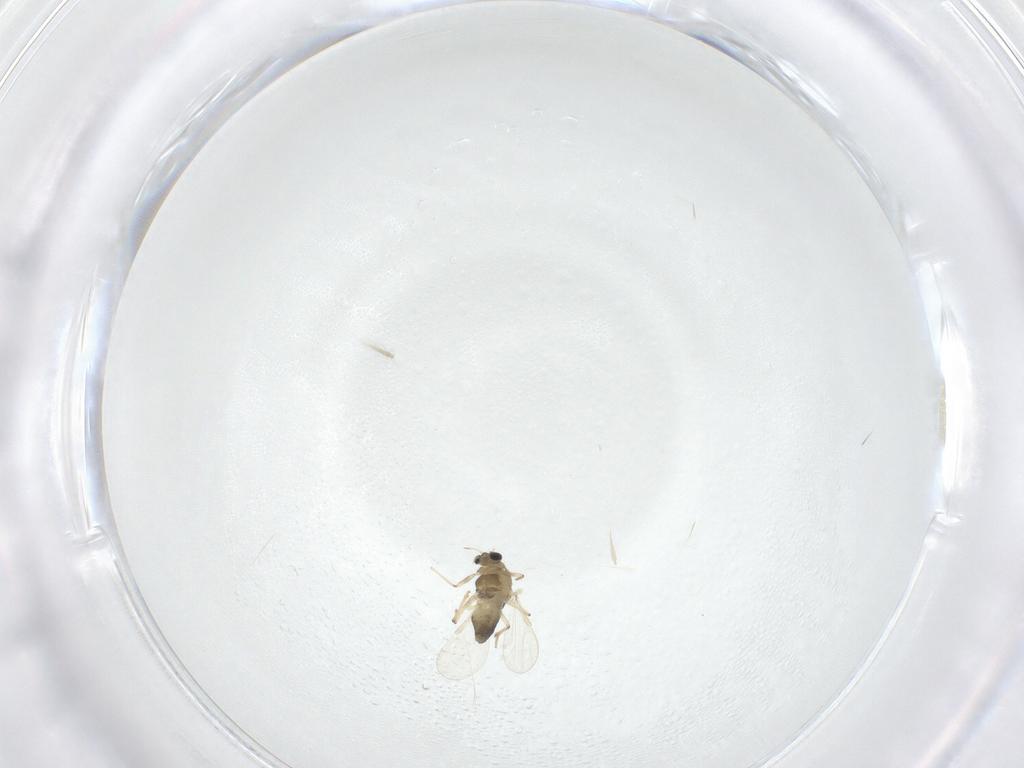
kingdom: Animalia
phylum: Arthropoda
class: Insecta
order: Diptera
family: Chironomidae
